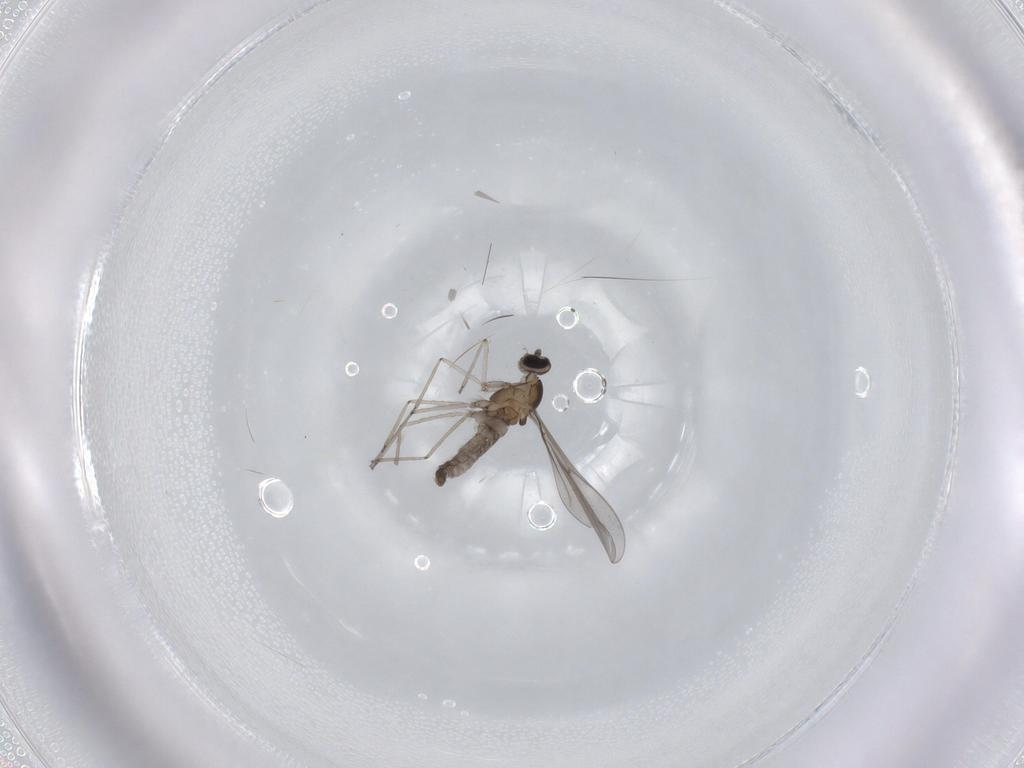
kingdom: Animalia
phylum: Arthropoda
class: Insecta
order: Diptera
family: Cecidomyiidae
